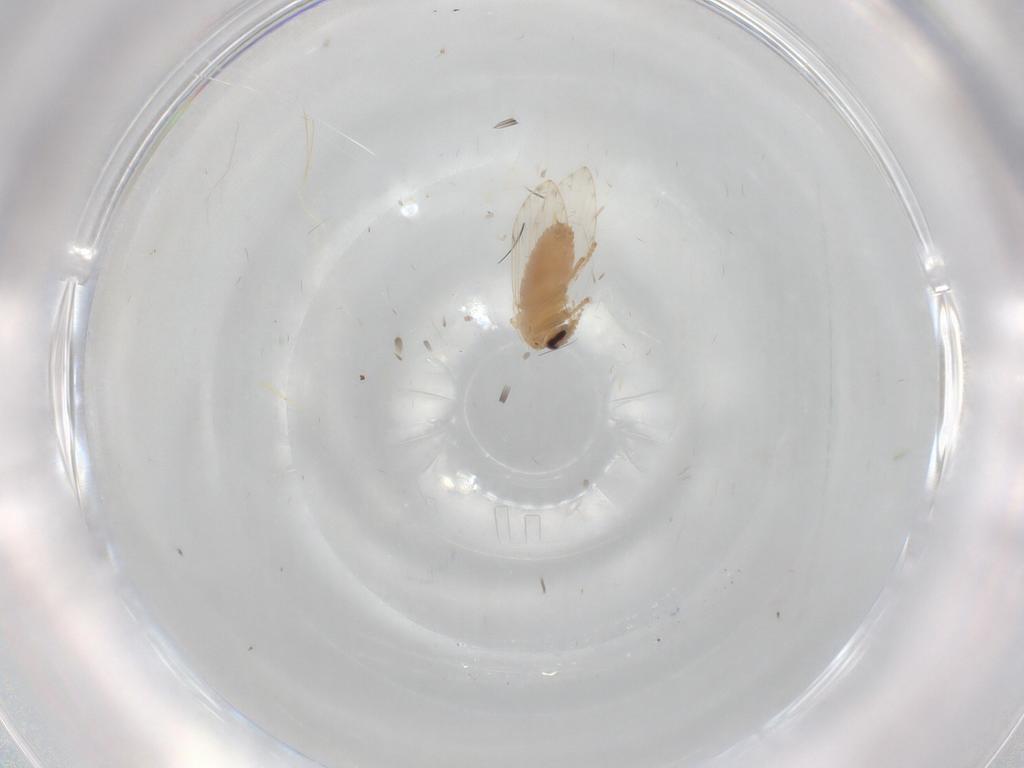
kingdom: Animalia
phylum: Arthropoda
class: Insecta
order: Diptera
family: Psychodidae
